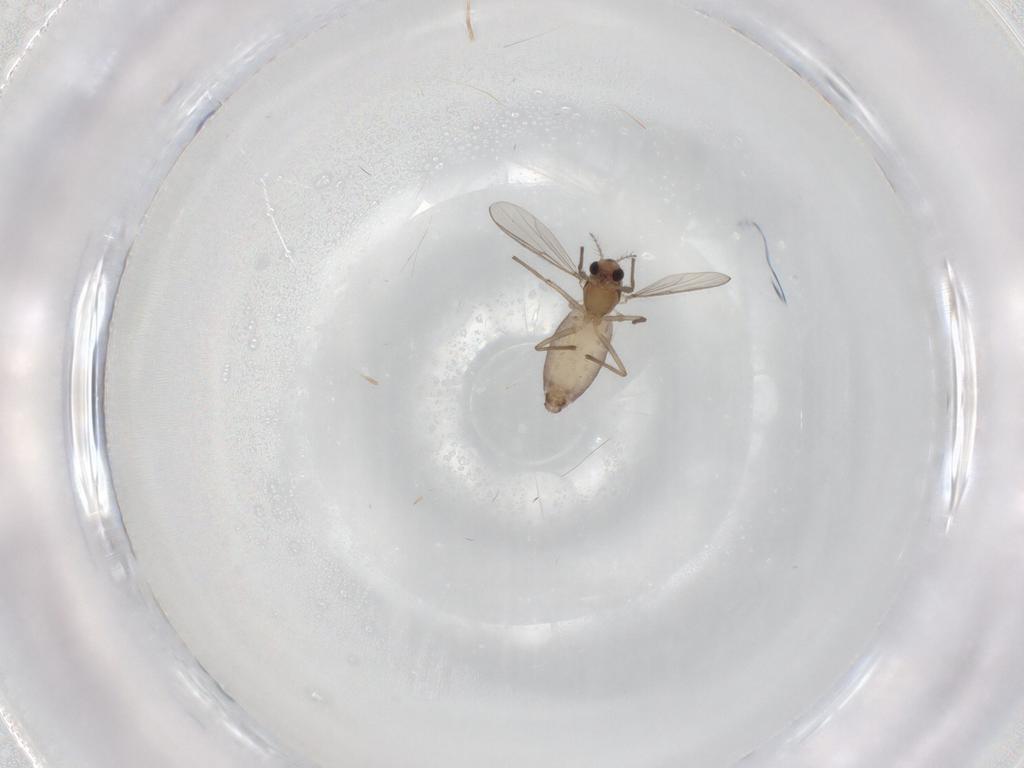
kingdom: Animalia
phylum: Arthropoda
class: Insecta
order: Diptera
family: Chironomidae
